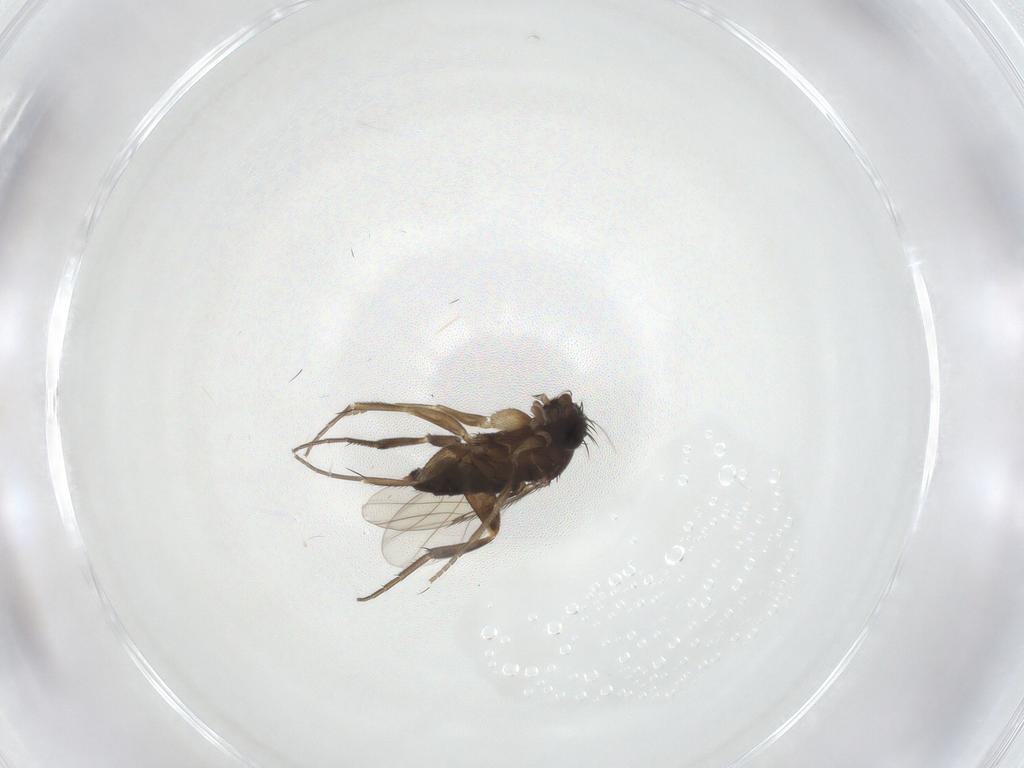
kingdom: Animalia
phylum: Arthropoda
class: Insecta
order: Diptera
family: Phoridae
